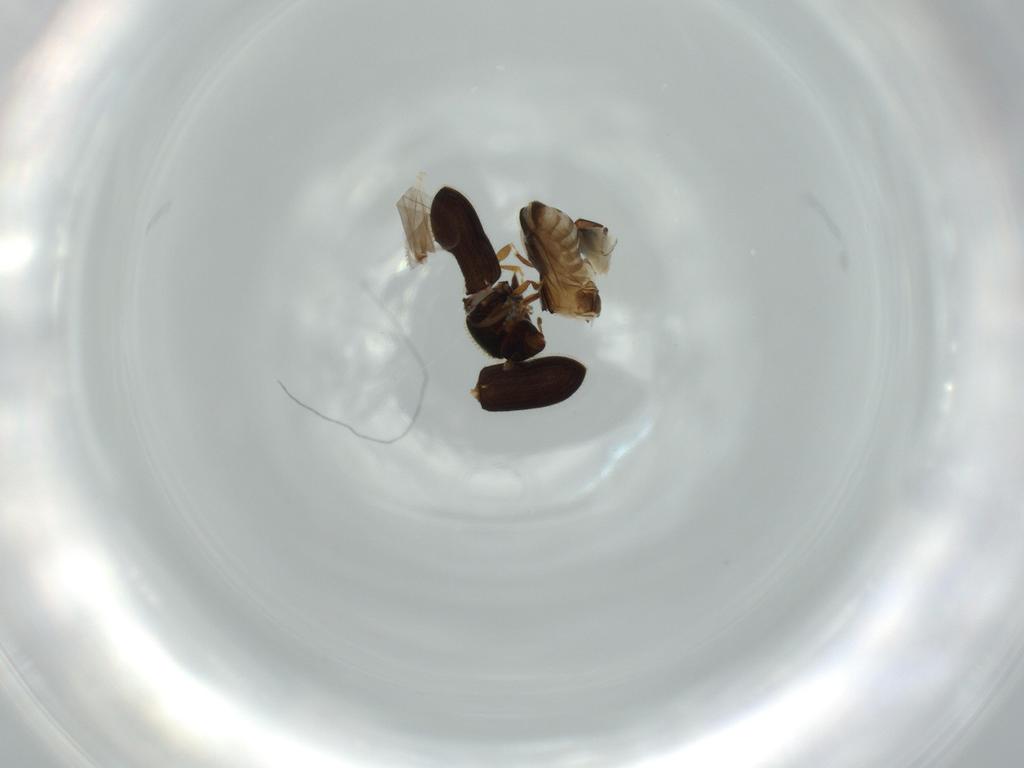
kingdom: Animalia
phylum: Arthropoda
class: Insecta
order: Coleoptera
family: Curculionidae
